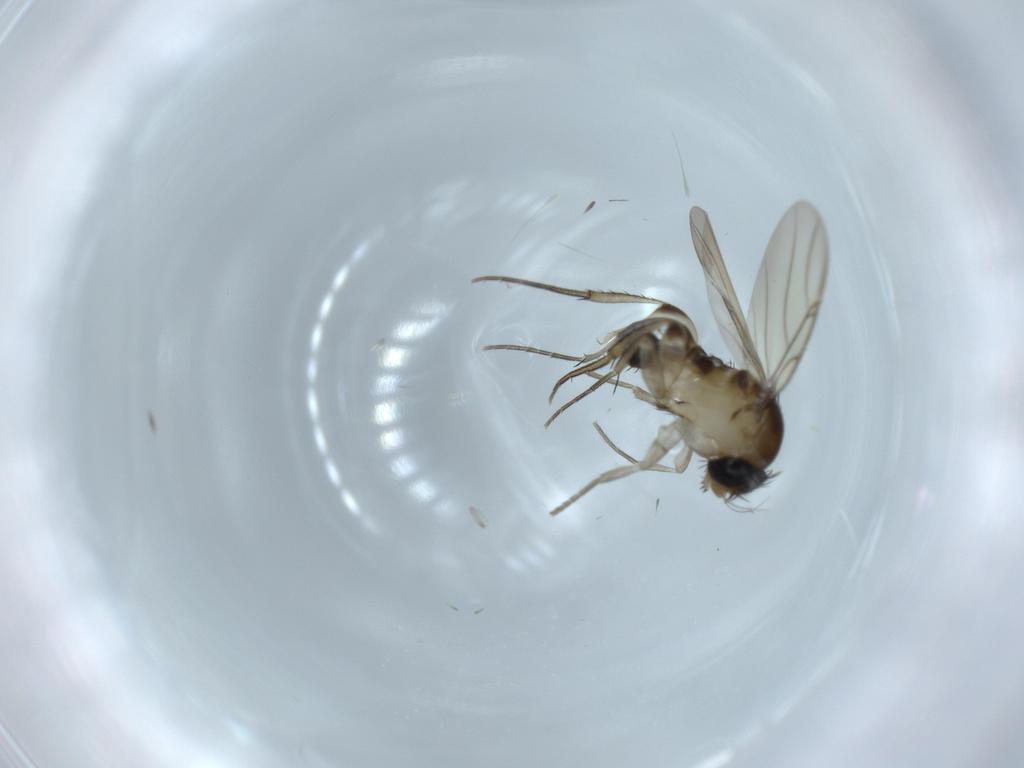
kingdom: Animalia
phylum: Arthropoda
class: Insecta
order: Diptera
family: Phoridae
